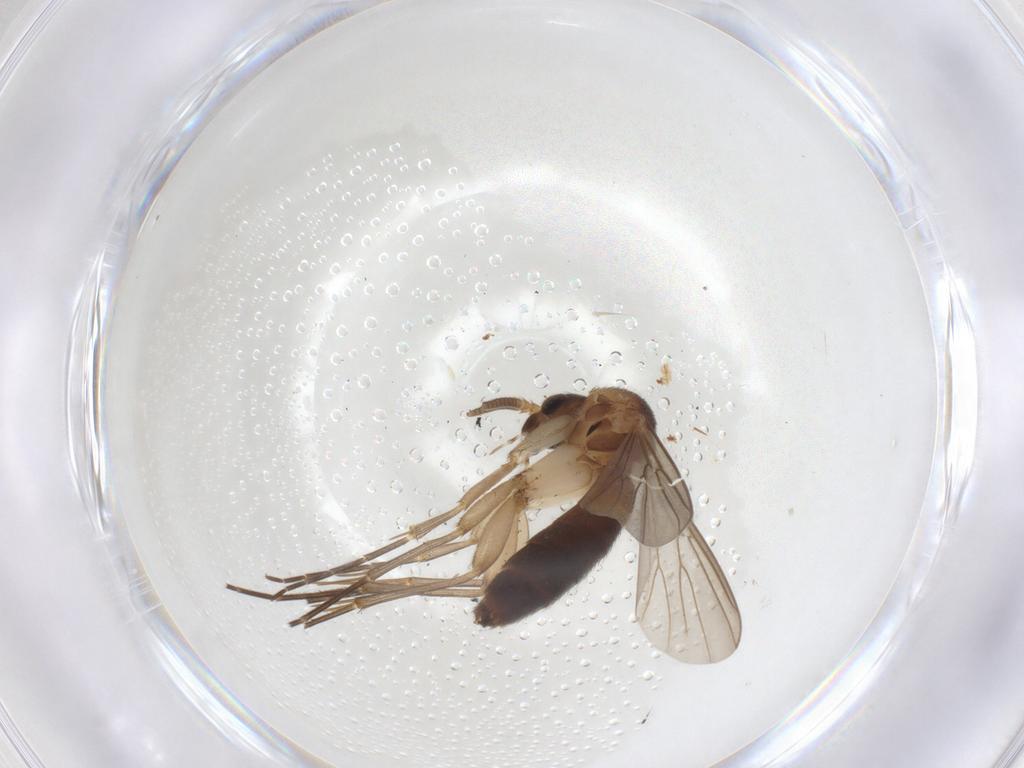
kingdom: Animalia
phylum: Arthropoda
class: Insecta
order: Diptera
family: Mycetophilidae
